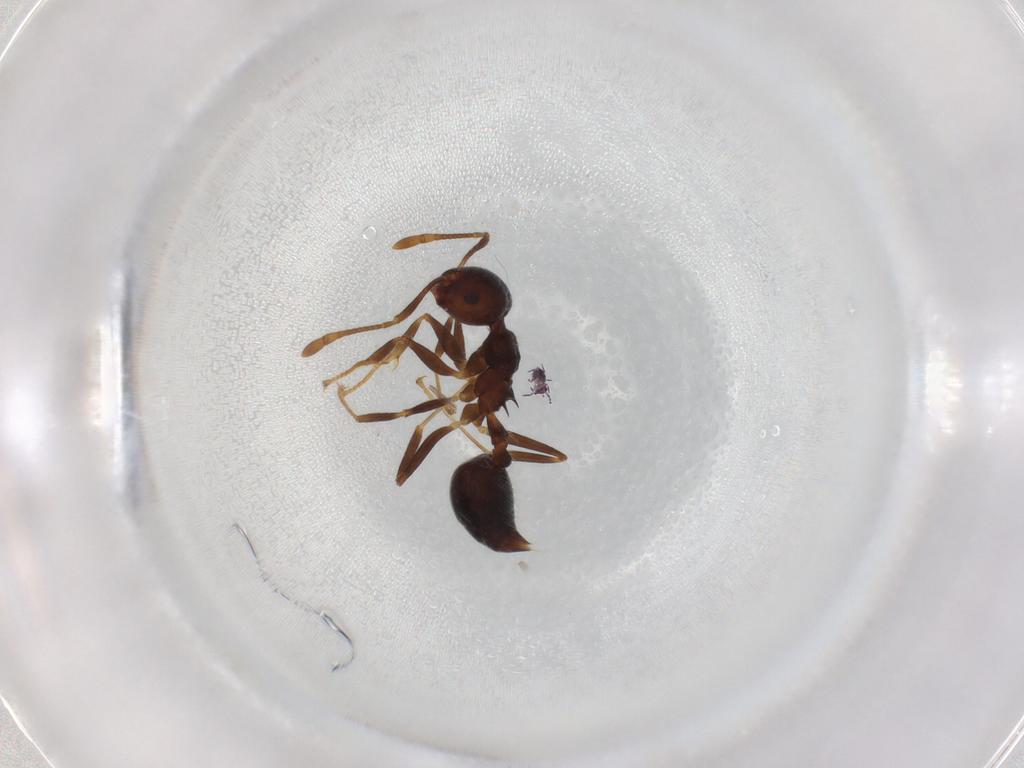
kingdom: Animalia
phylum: Arthropoda
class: Insecta
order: Hymenoptera
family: Formicidae
